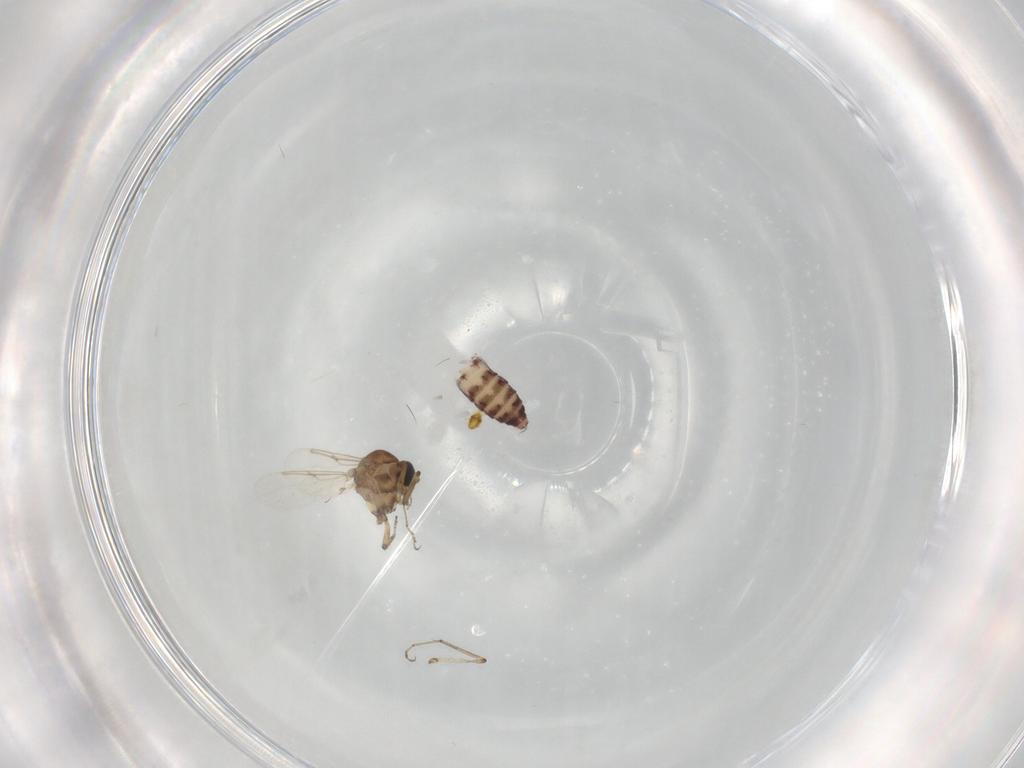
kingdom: Animalia
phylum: Arthropoda
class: Insecta
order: Diptera
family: Ceratopogonidae
